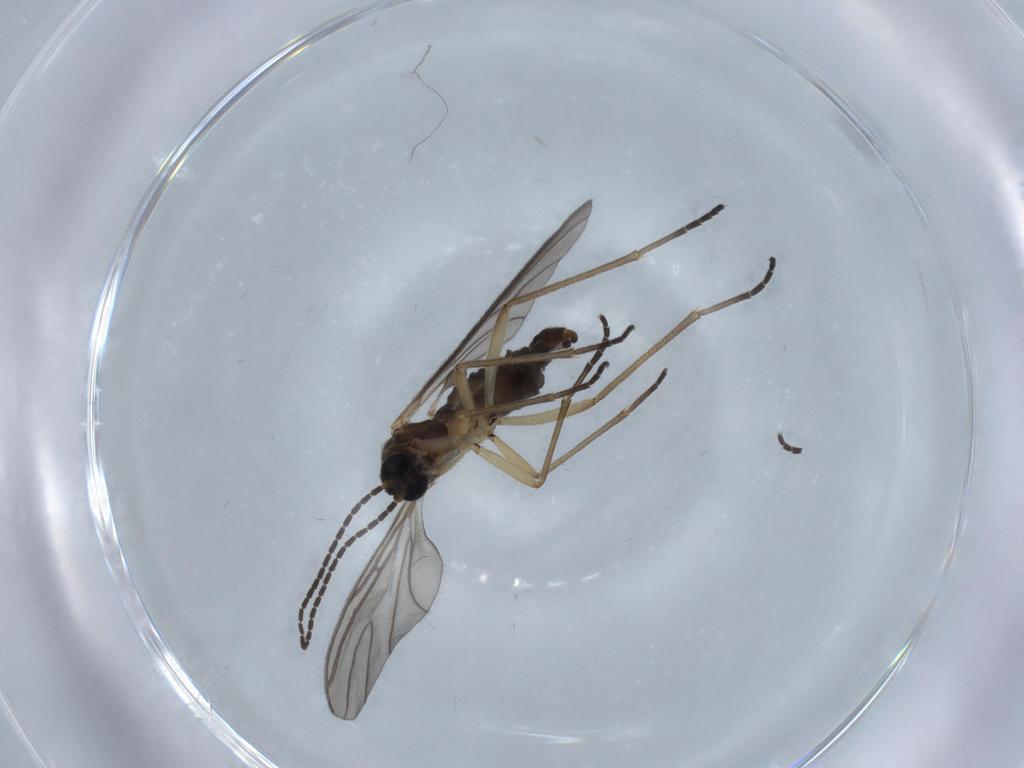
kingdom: Animalia
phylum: Arthropoda
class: Insecta
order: Diptera
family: Sciaridae
